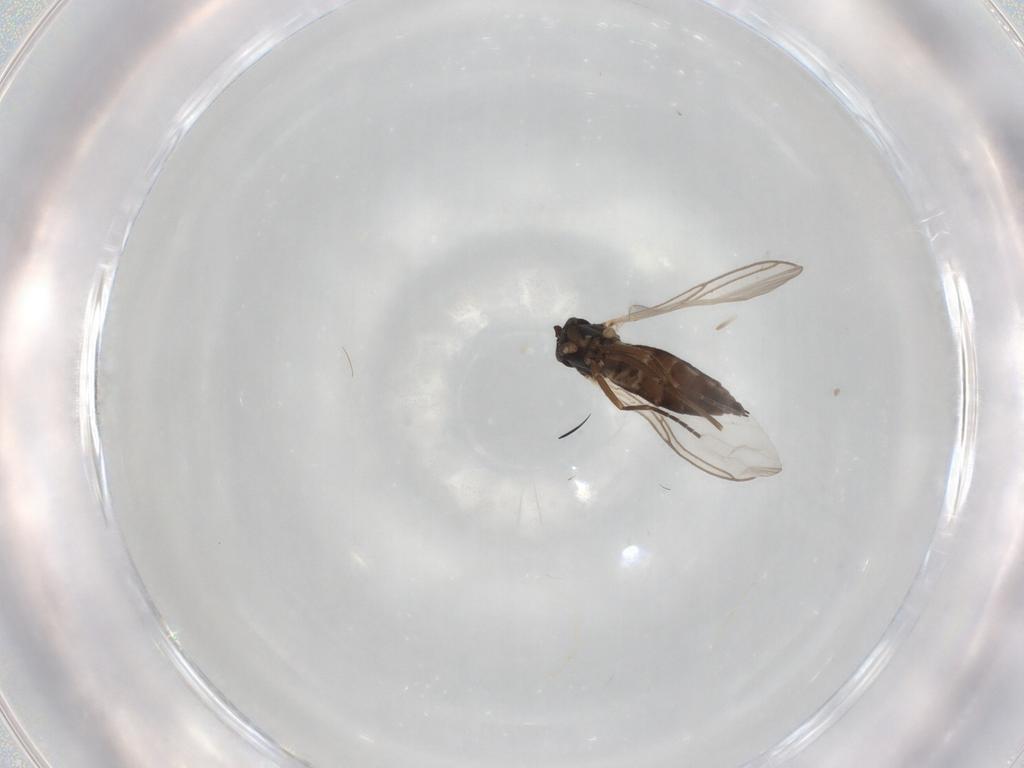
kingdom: Animalia
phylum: Arthropoda
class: Insecta
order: Diptera
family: Sciaridae
